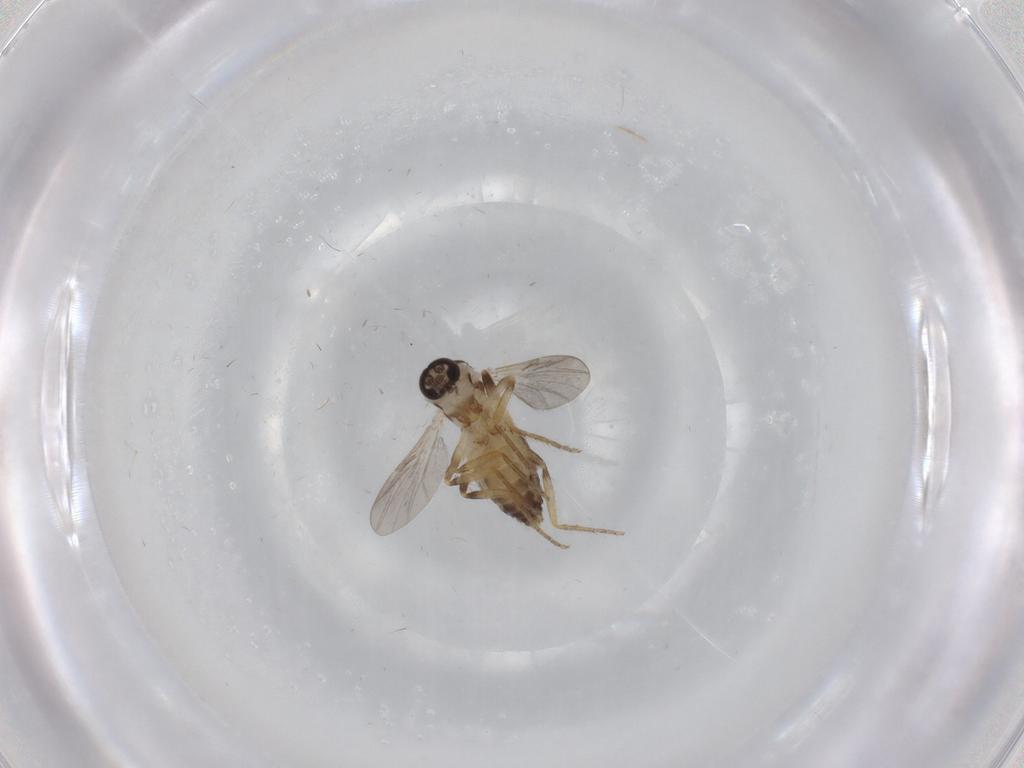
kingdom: Animalia
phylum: Arthropoda
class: Insecta
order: Diptera
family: Ceratopogonidae
